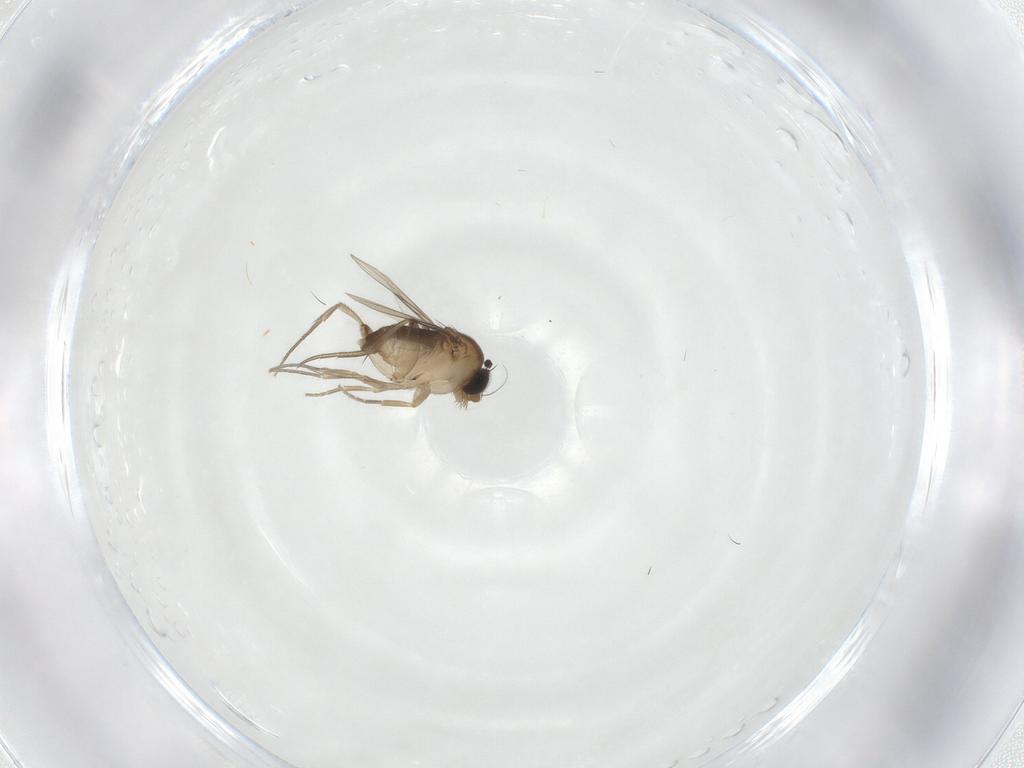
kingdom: Animalia
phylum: Arthropoda
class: Insecta
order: Diptera
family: Phoridae
